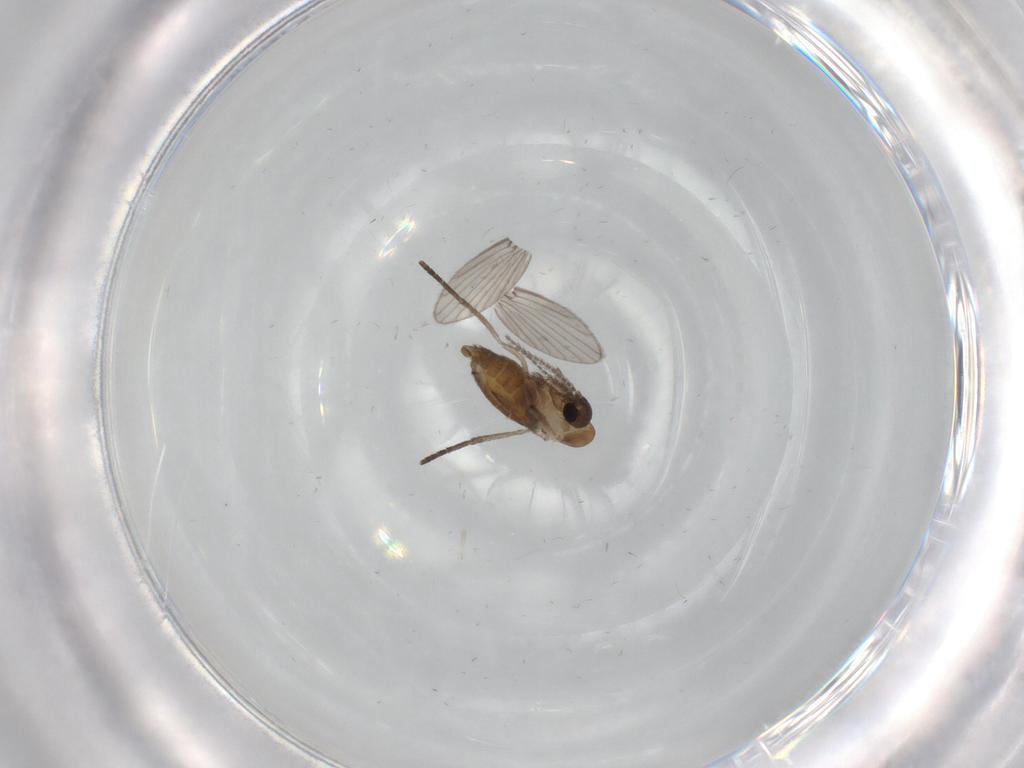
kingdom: Animalia
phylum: Arthropoda
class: Insecta
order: Diptera
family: Psychodidae
